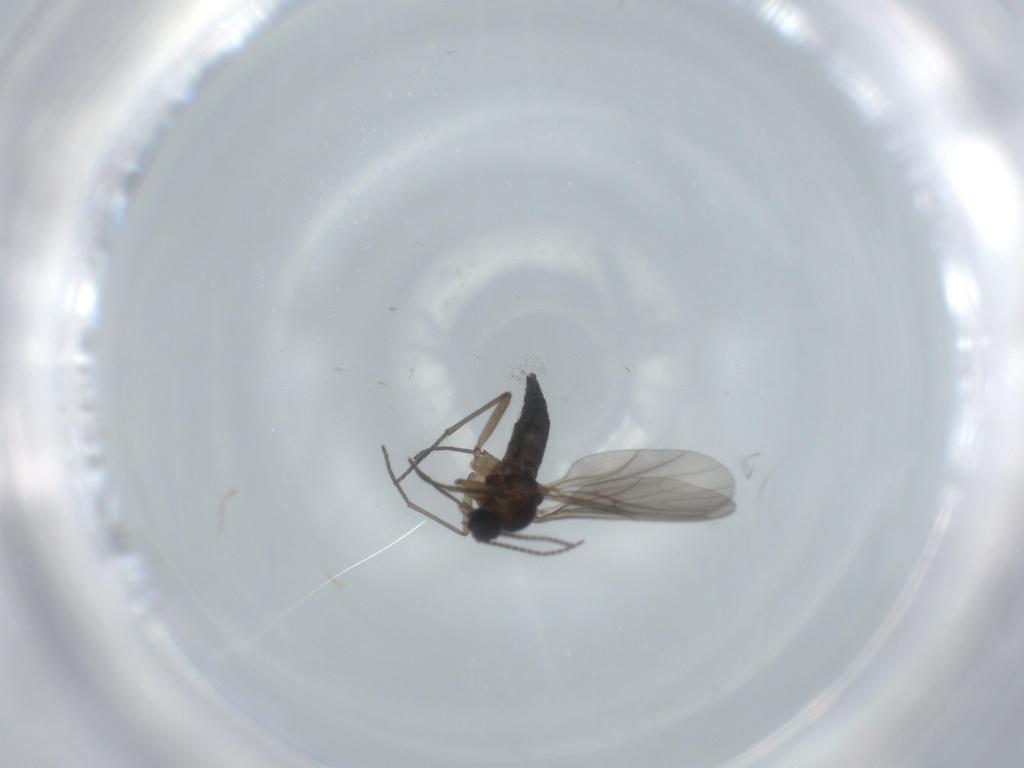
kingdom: Animalia
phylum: Arthropoda
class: Insecta
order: Diptera
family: Sciaridae
